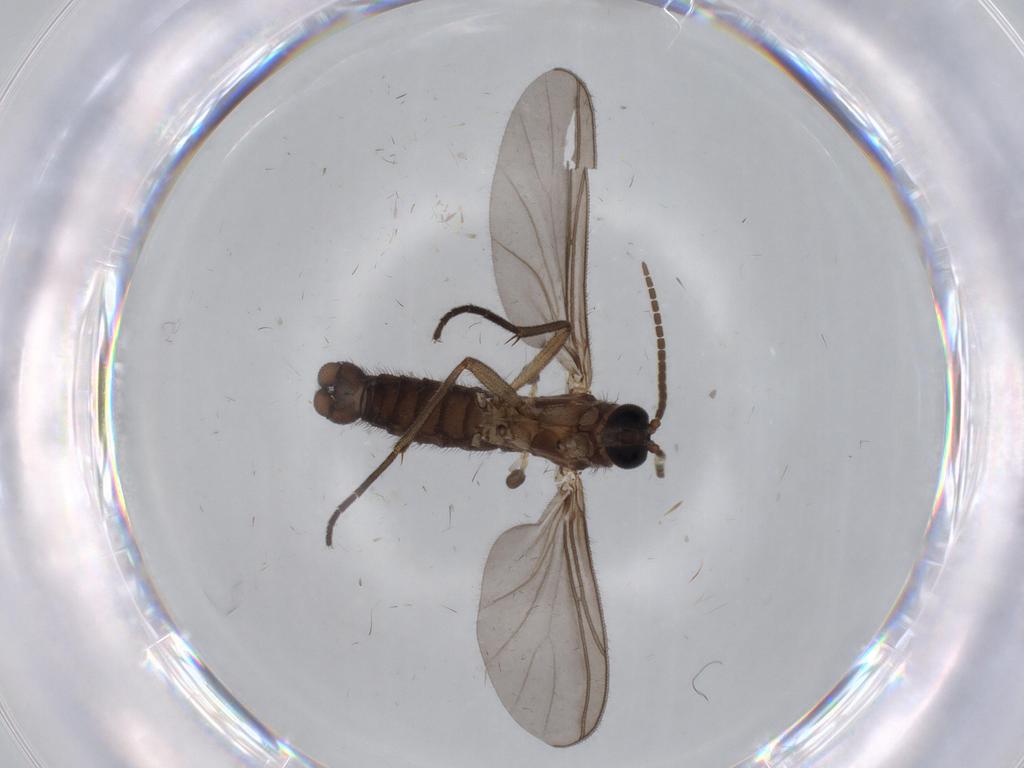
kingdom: Animalia
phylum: Arthropoda
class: Insecta
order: Diptera
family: Sciaridae
